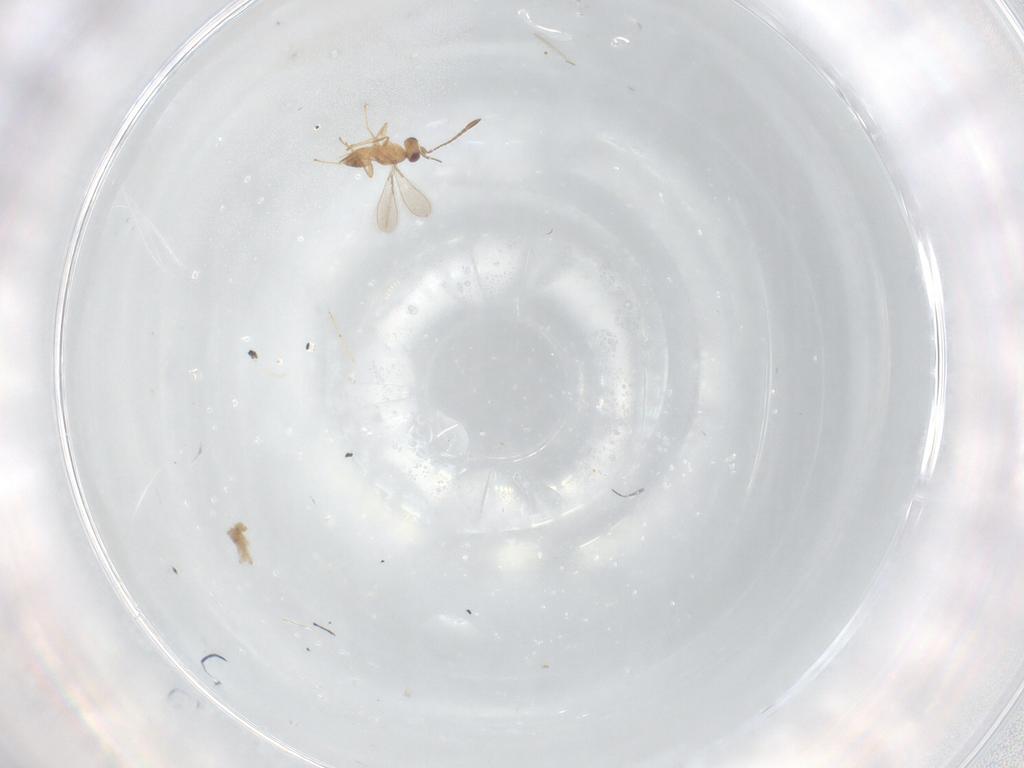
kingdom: Animalia
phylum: Arthropoda
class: Insecta
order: Hymenoptera
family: Mymaridae
